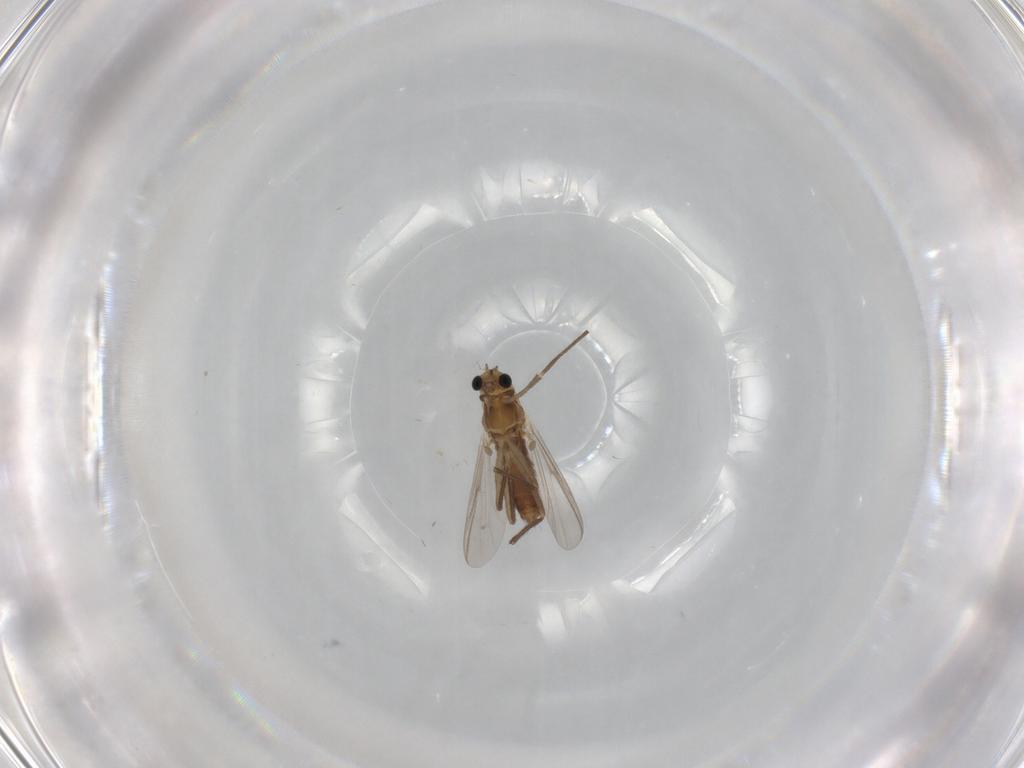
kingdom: Animalia
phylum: Arthropoda
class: Insecta
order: Diptera
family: Chironomidae
